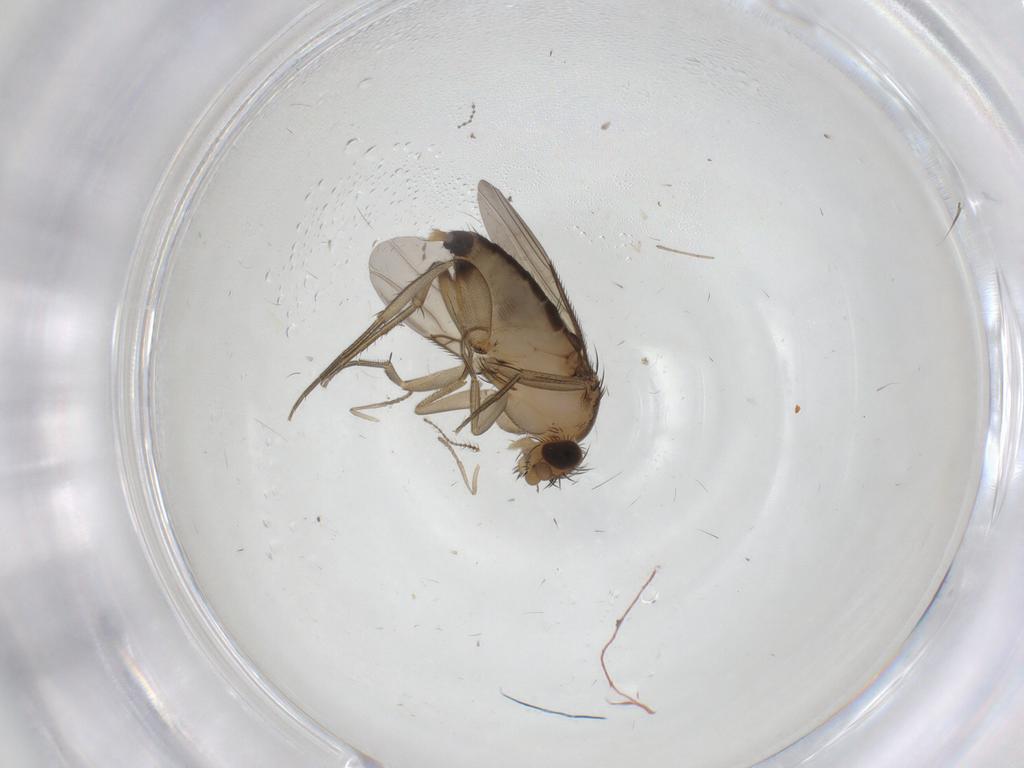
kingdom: Animalia
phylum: Arthropoda
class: Insecta
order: Diptera
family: Phoridae
